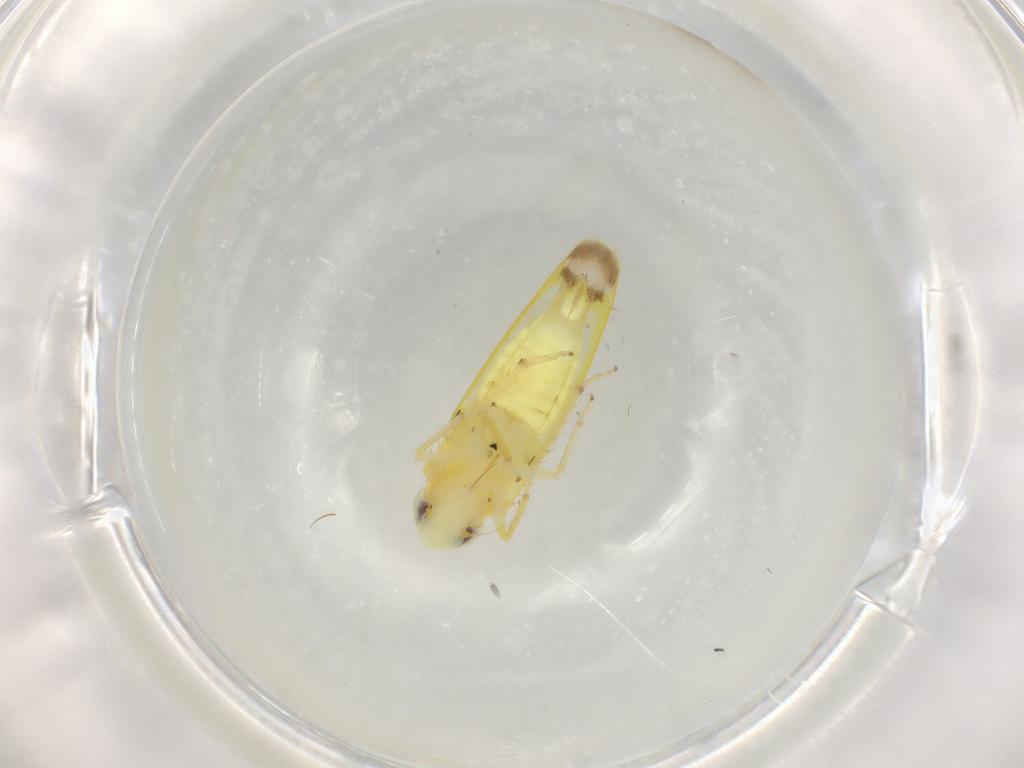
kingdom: Animalia
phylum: Arthropoda
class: Insecta
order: Hemiptera
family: Cicadellidae
